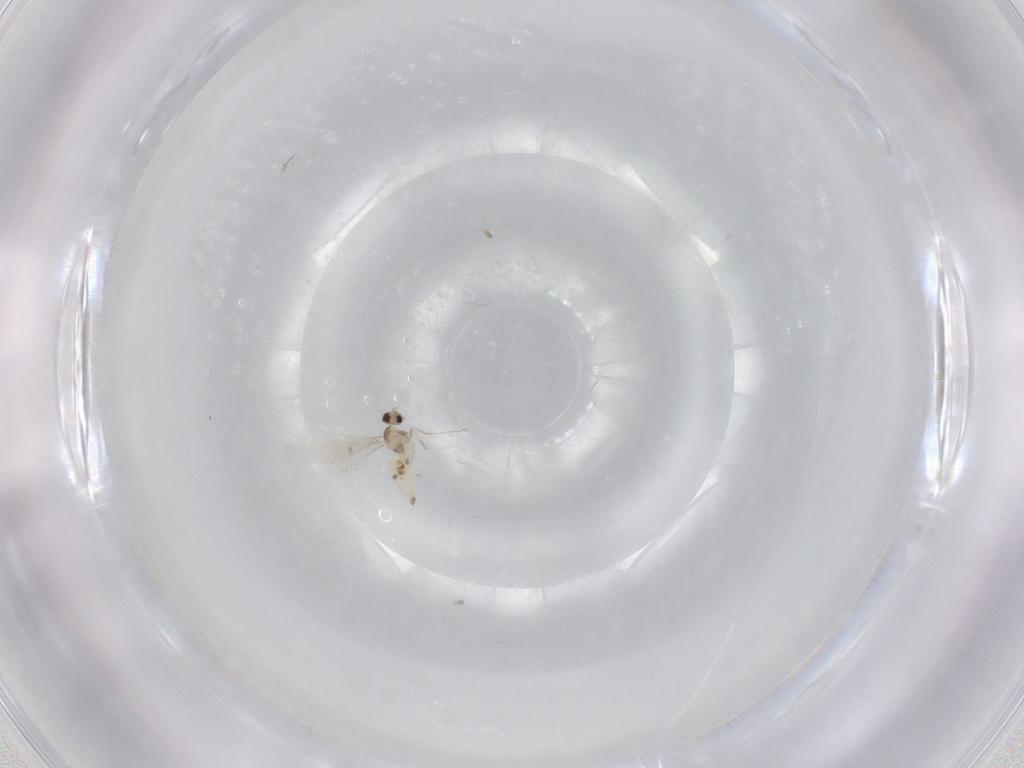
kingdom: Animalia
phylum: Arthropoda
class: Insecta
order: Diptera
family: Cecidomyiidae
